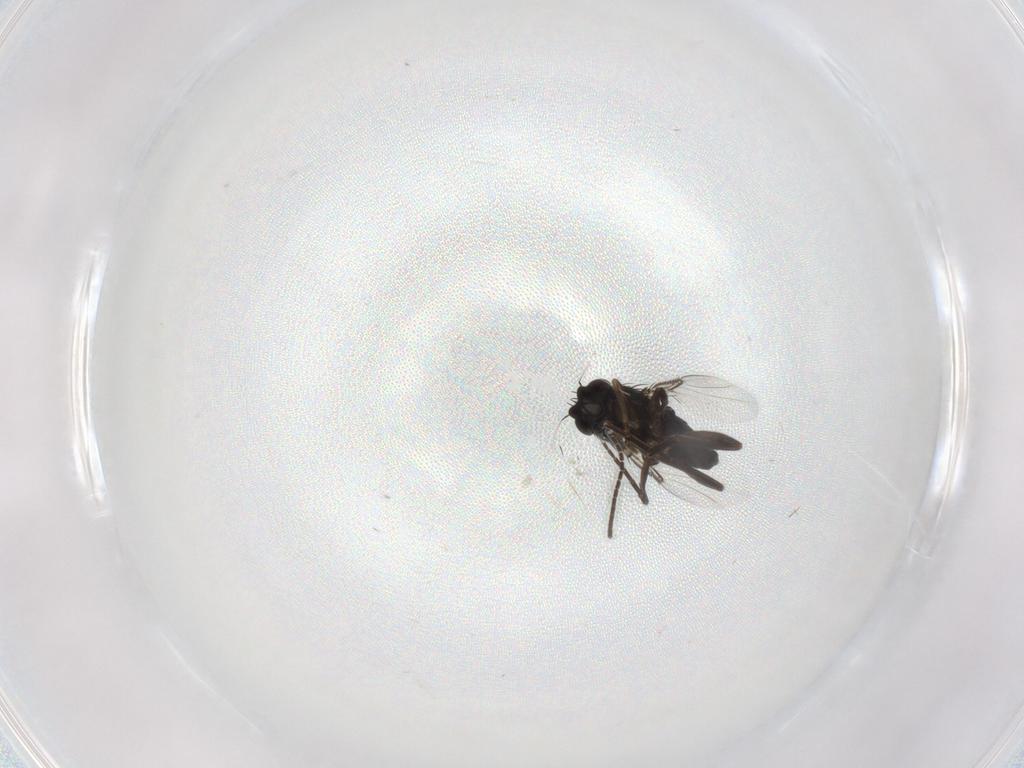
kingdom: Animalia
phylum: Arthropoda
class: Insecta
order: Diptera
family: Phoridae
